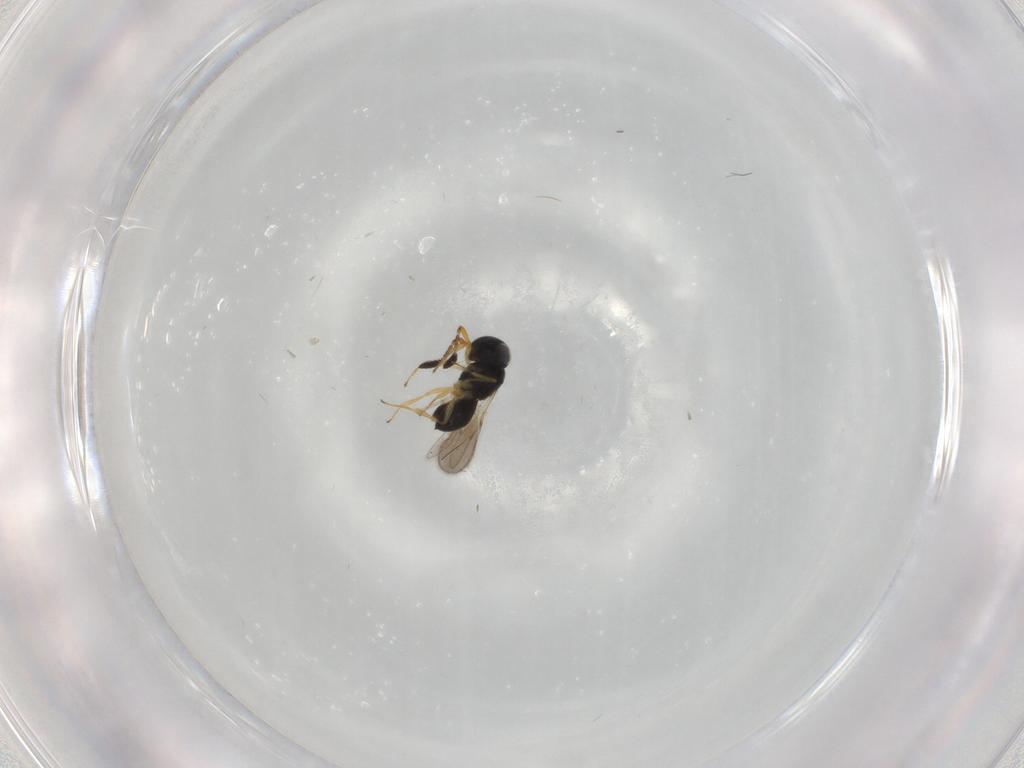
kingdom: Animalia
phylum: Arthropoda
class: Insecta
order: Hymenoptera
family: Scelionidae
